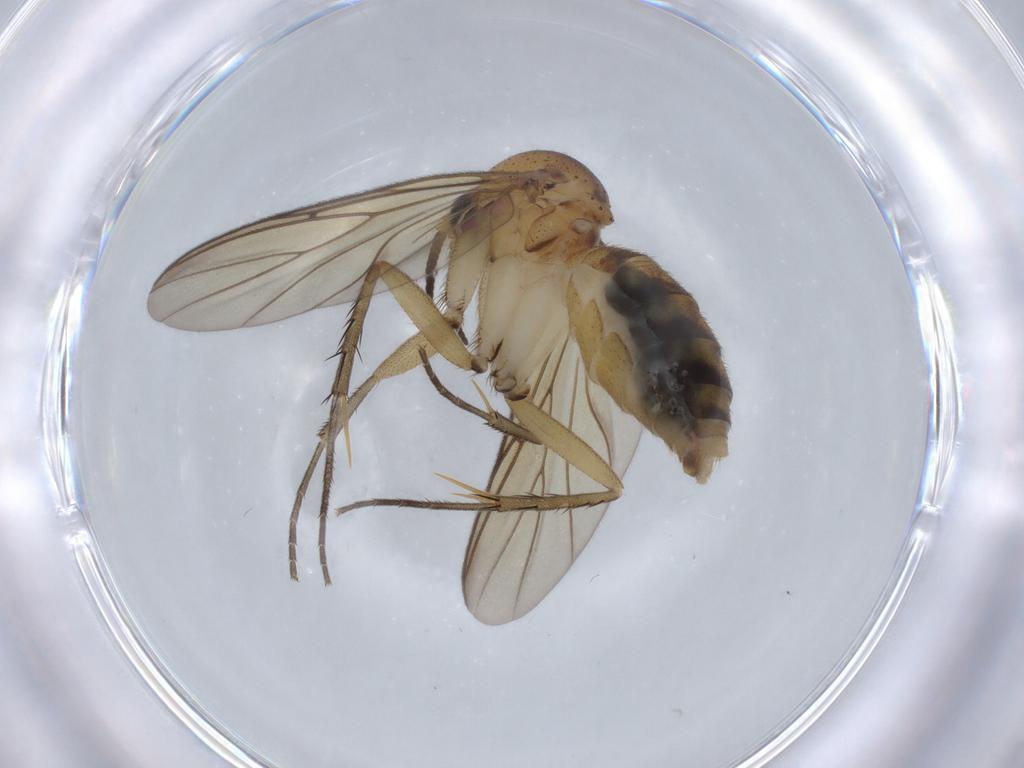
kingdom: Animalia
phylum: Arthropoda
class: Insecta
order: Diptera
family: Mycetophilidae
